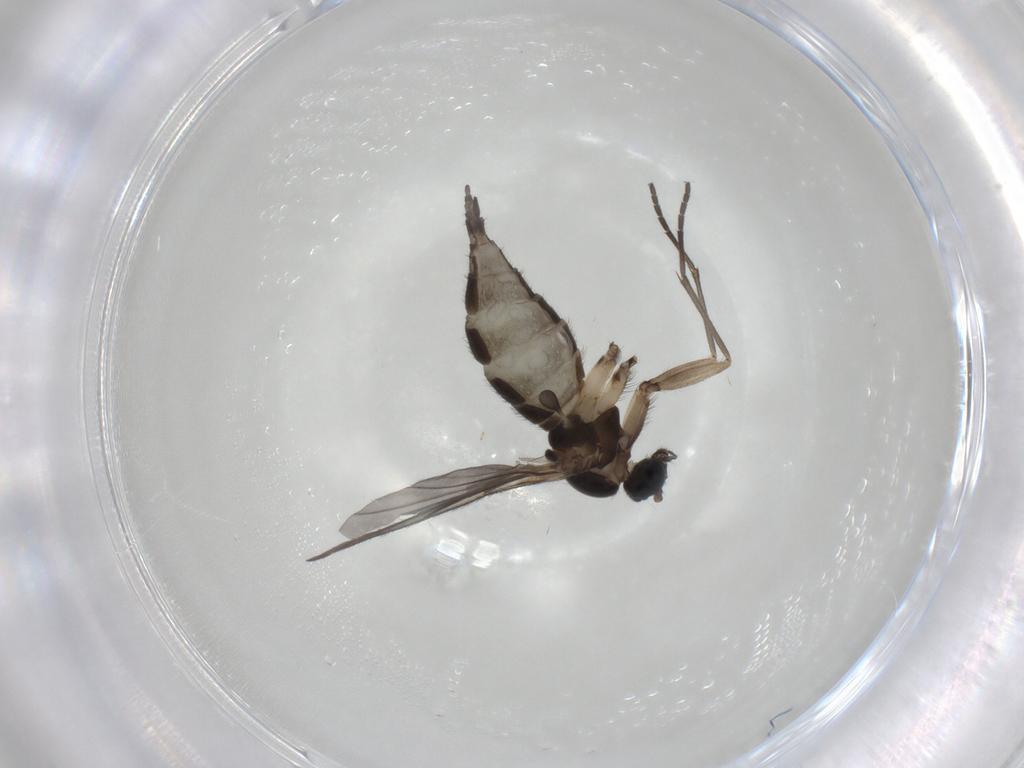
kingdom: Animalia
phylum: Arthropoda
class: Insecta
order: Diptera
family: Sciaridae
